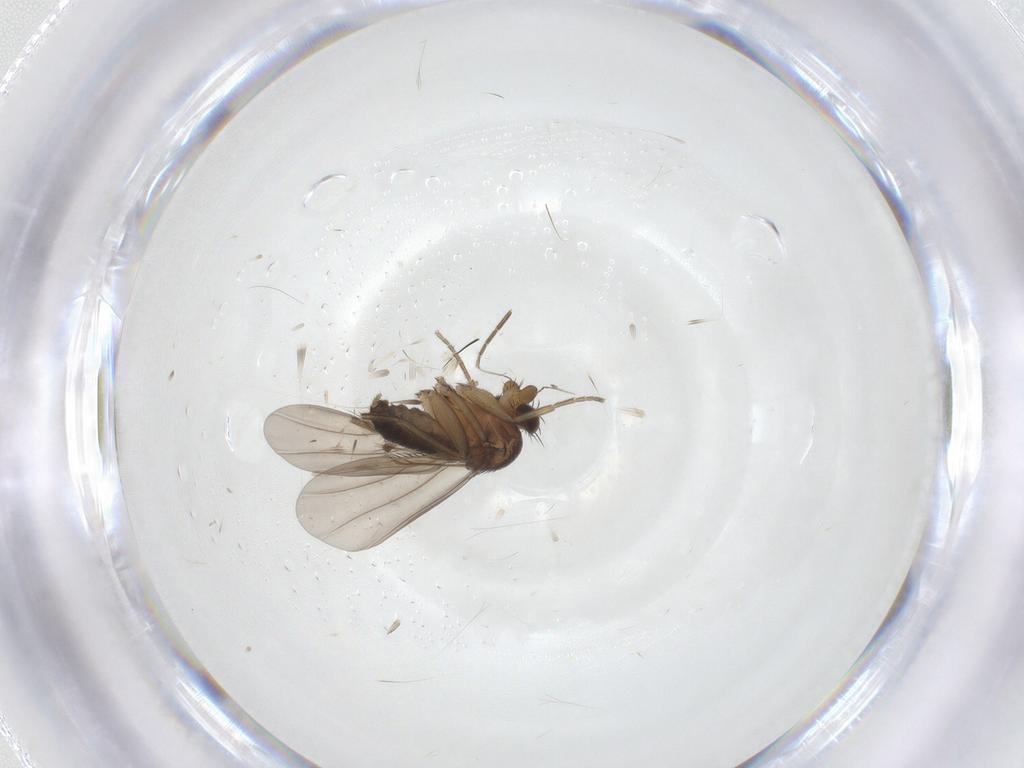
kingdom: Animalia
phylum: Arthropoda
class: Insecta
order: Diptera
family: Phoridae
